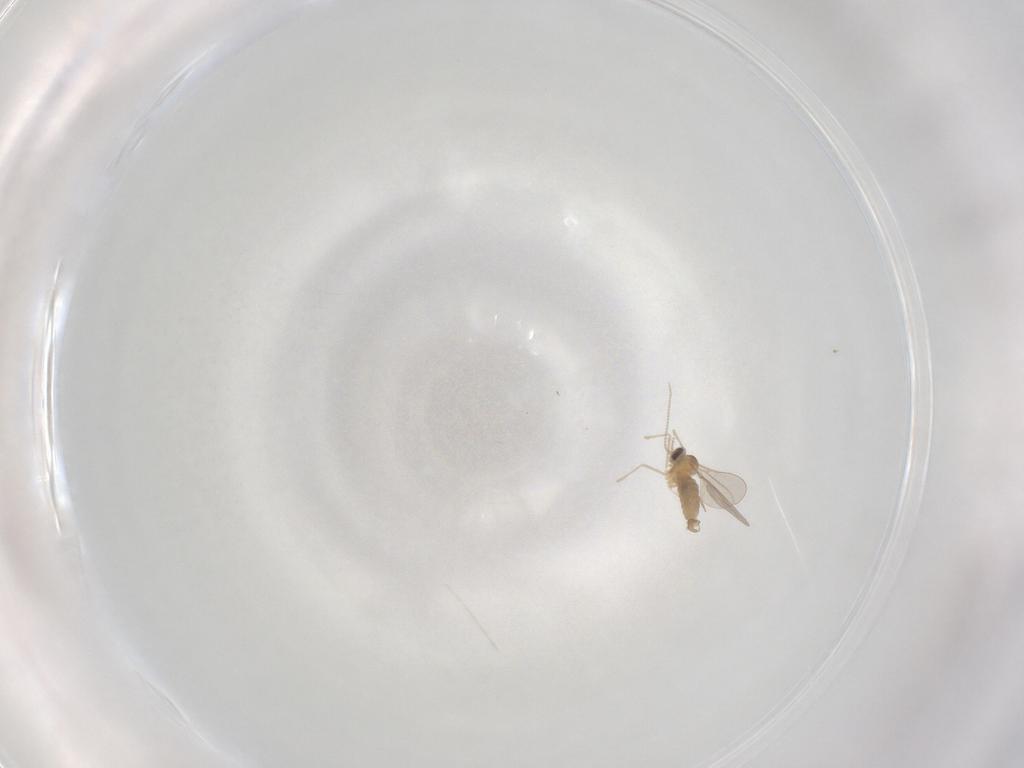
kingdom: Animalia
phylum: Arthropoda
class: Insecta
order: Diptera
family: Cecidomyiidae
